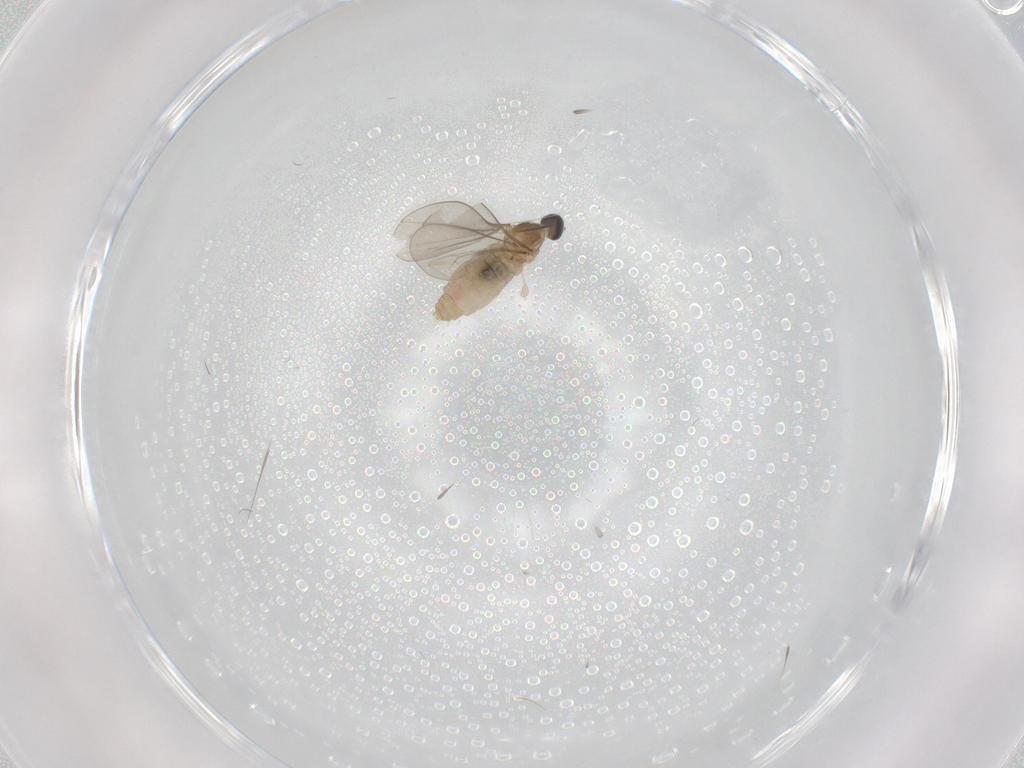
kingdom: Animalia
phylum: Arthropoda
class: Insecta
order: Diptera
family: Cecidomyiidae
